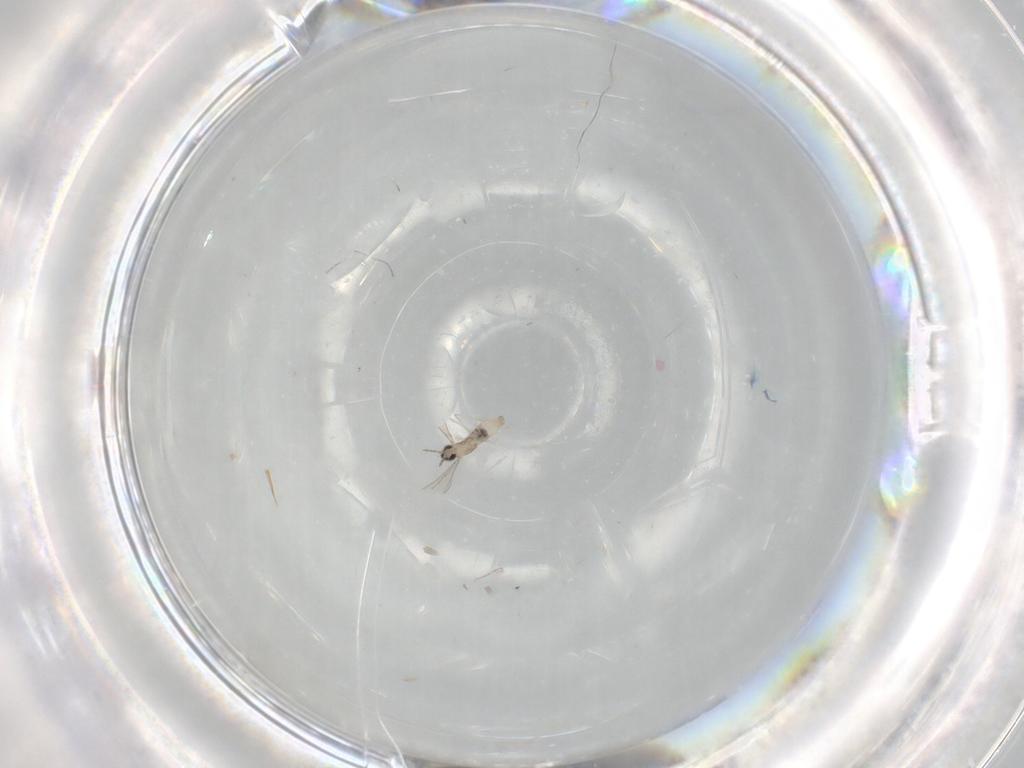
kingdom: Animalia
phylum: Arthropoda
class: Insecta
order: Diptera
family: Cecidomyiidae
